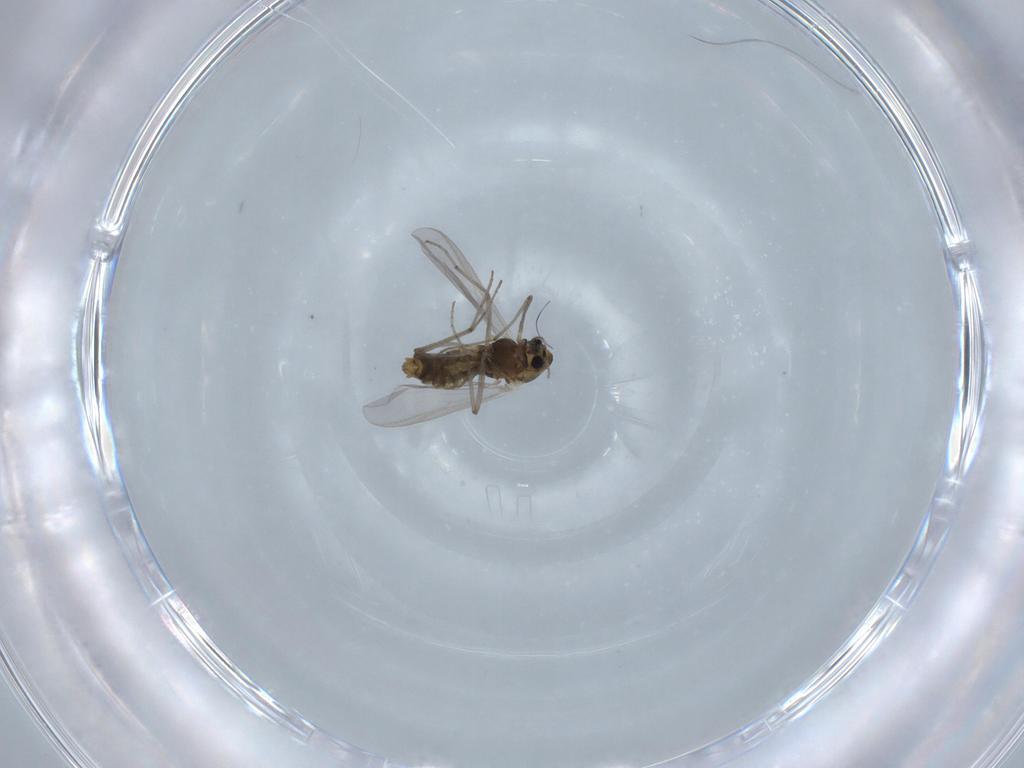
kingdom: Animalia
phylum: Arthropoda
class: Insecta
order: Diptera
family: Chironomidae
